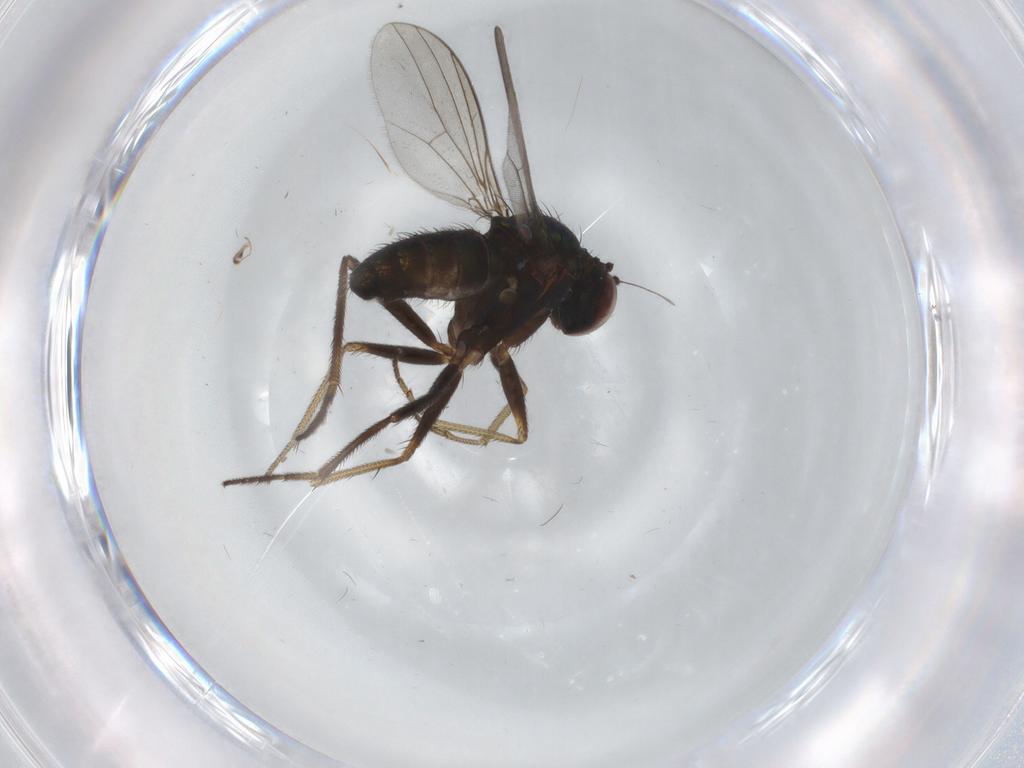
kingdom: Animalia
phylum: Arthropoda
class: Insecta
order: Diptera
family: Dolichopodidae
